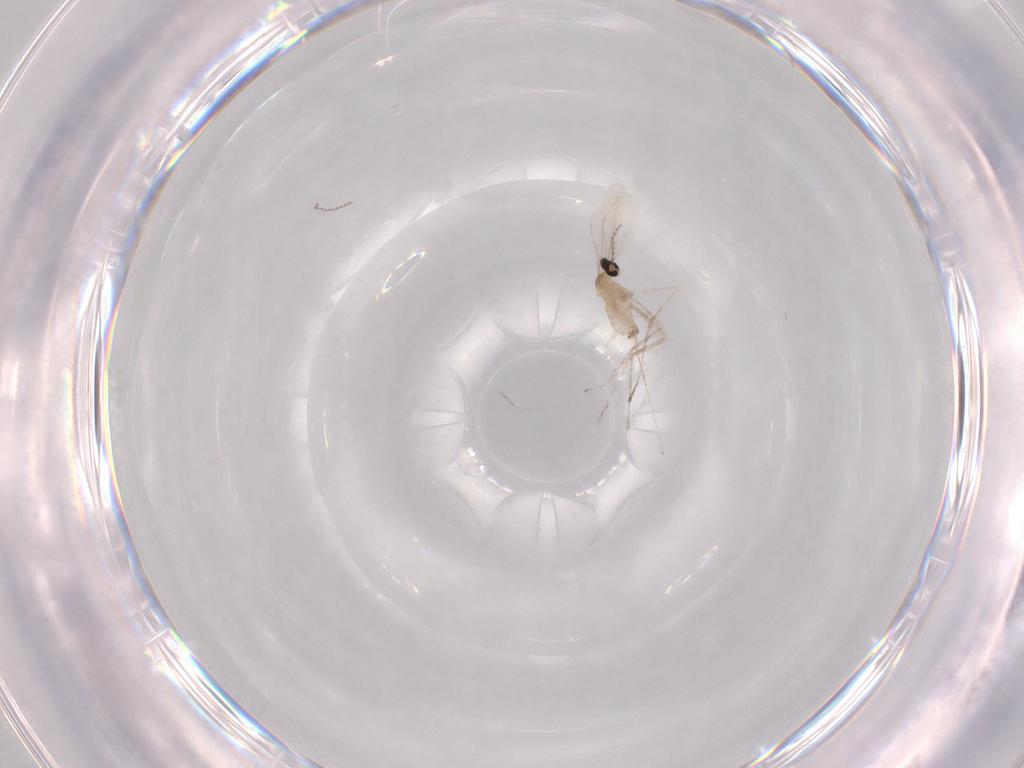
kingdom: Animalia
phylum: Arthropoda
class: Insecta
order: Diptera
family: Cecidomyiidae
